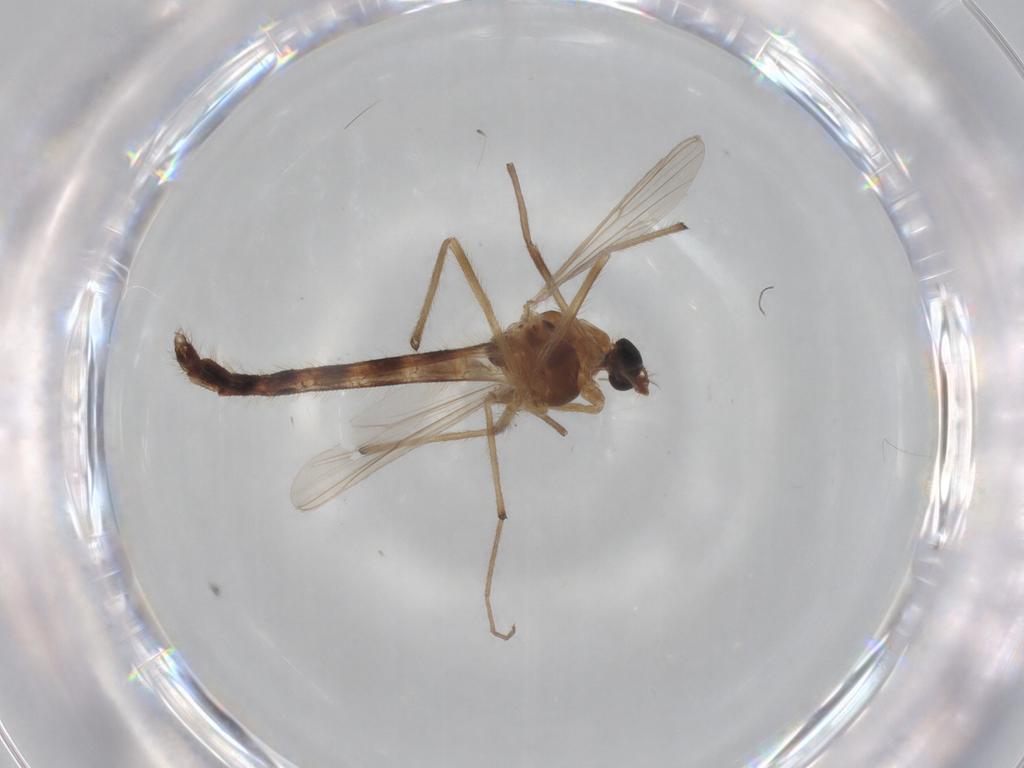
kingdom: Animalia
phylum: Arthropoda
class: Insecta
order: Diptera
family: Chironomidae
